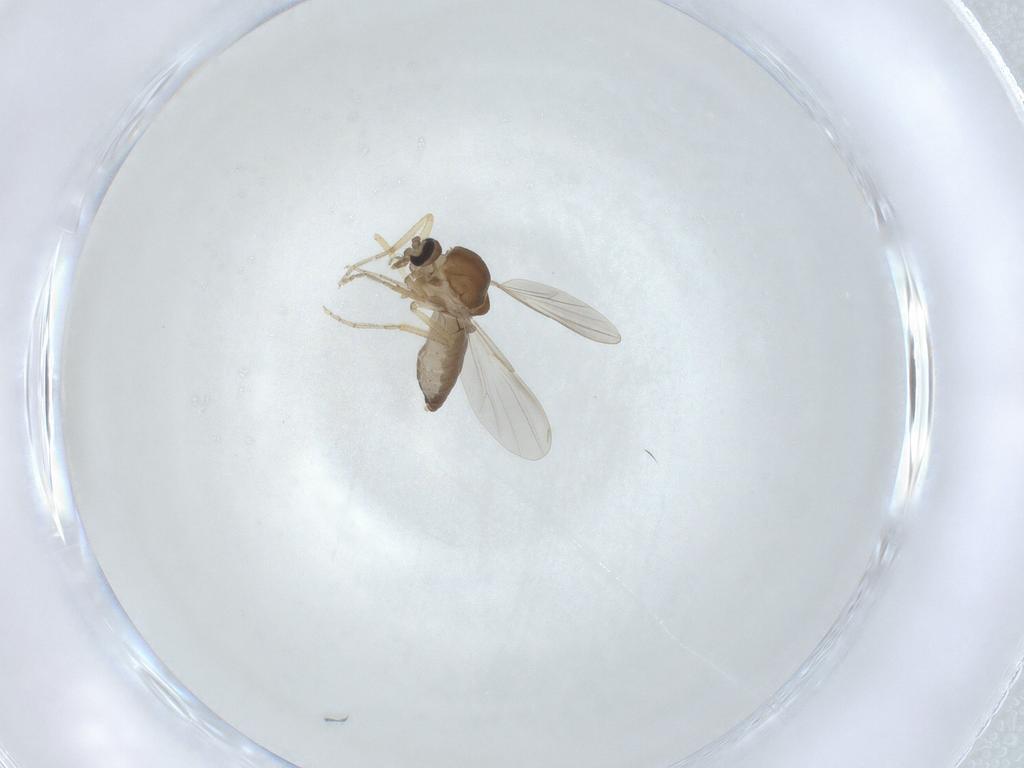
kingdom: Animalia
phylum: Arthropoda
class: Insecta
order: Diptera
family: Ceratopogonidae
